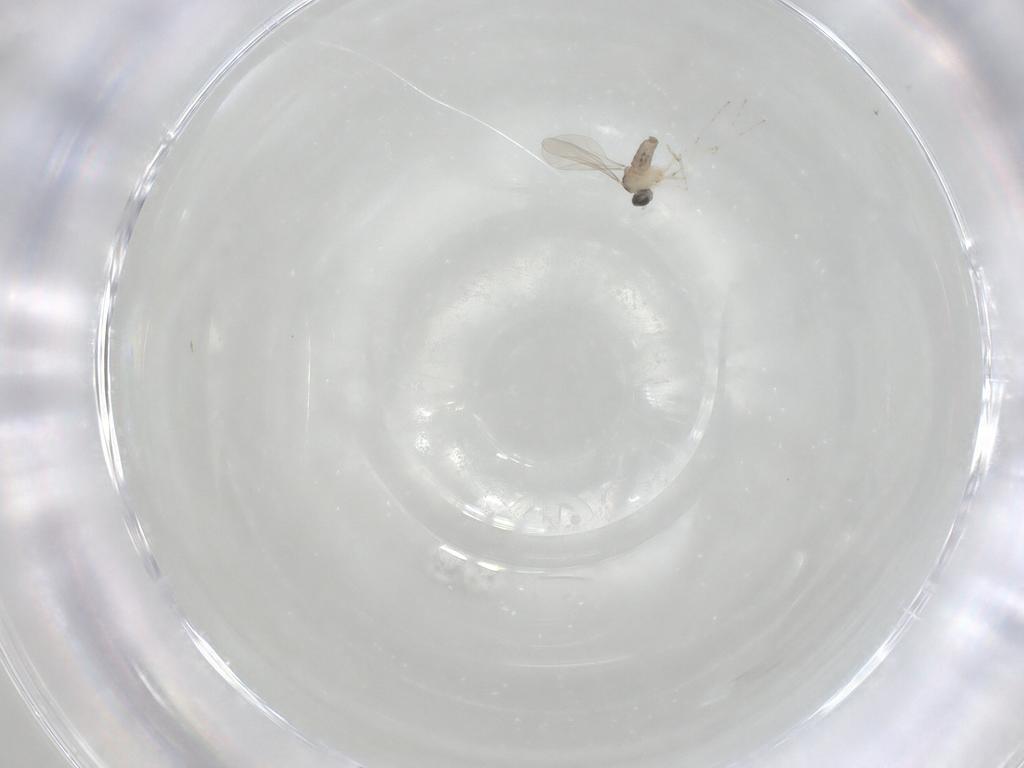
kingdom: Animalia
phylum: Arthropoda
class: Insecta
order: Diptera
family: Cecidomyiidae
